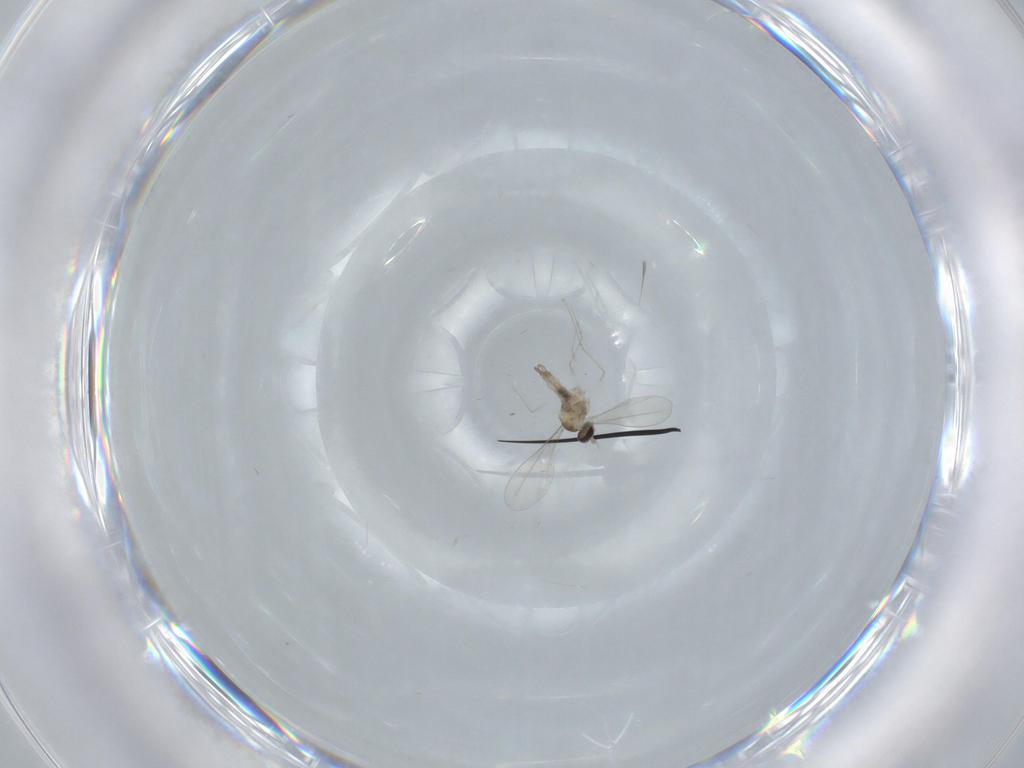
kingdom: Animalia
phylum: Arthropoda
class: Insecta
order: Diptera
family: Cecidomyiidae
